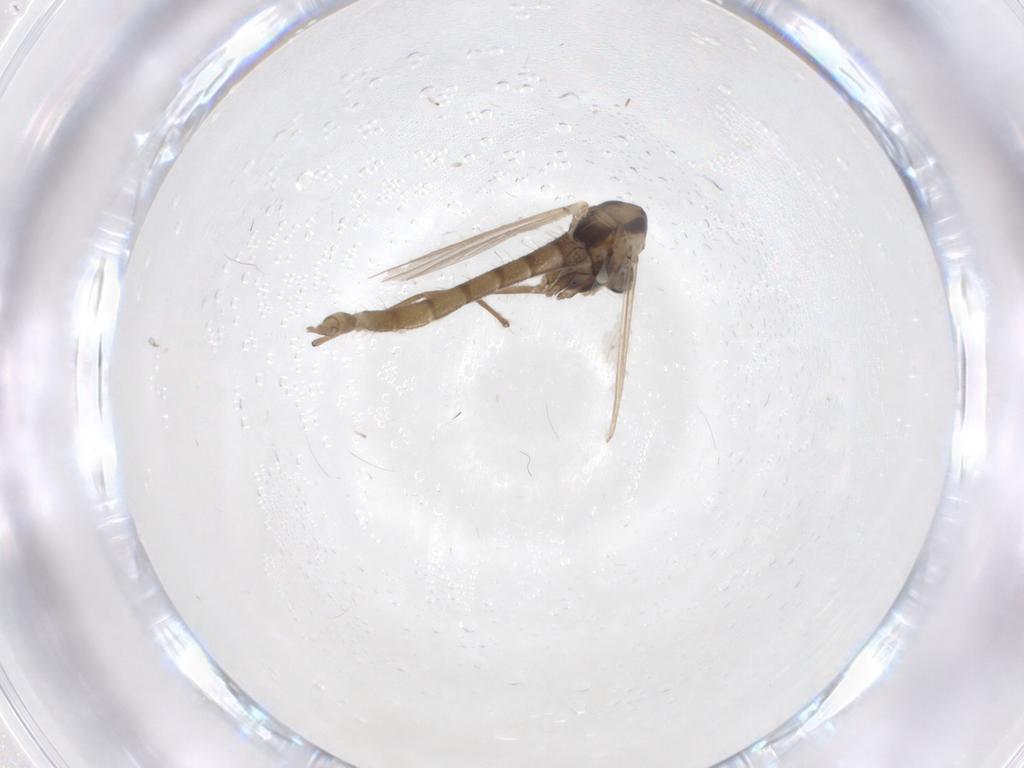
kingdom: Animalia
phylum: Arthropoda
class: Insecta
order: Diptera
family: Chironomidae
